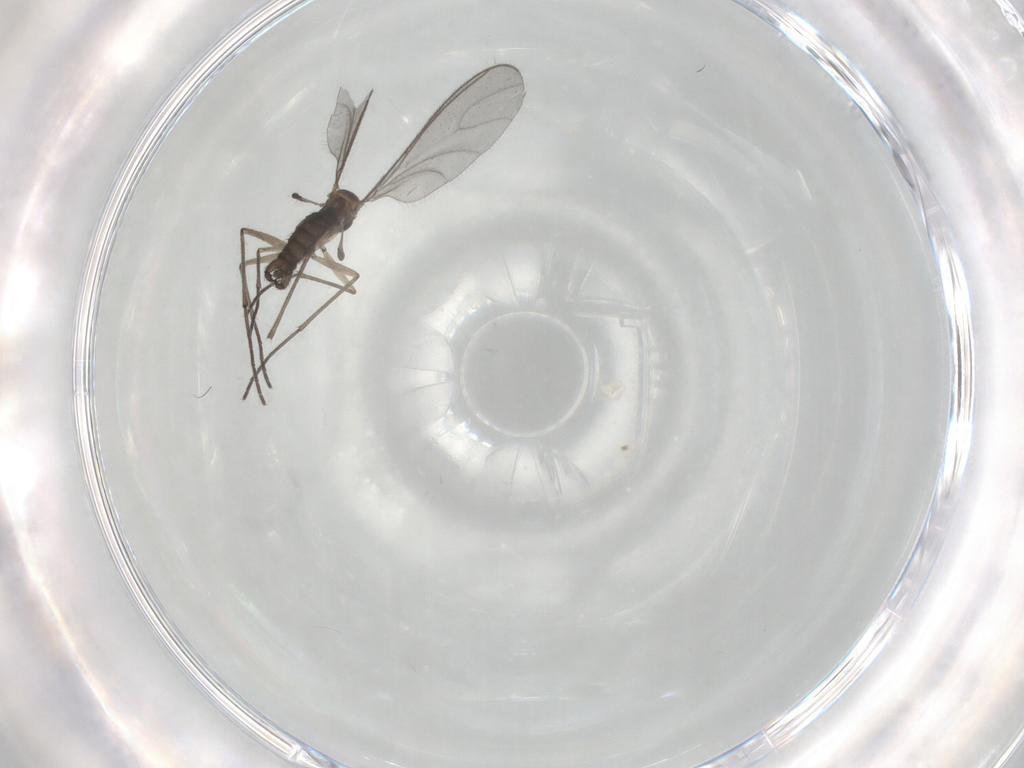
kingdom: Animalia
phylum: Arthropoda
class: Insecta
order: Diptera
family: Sciaridae
